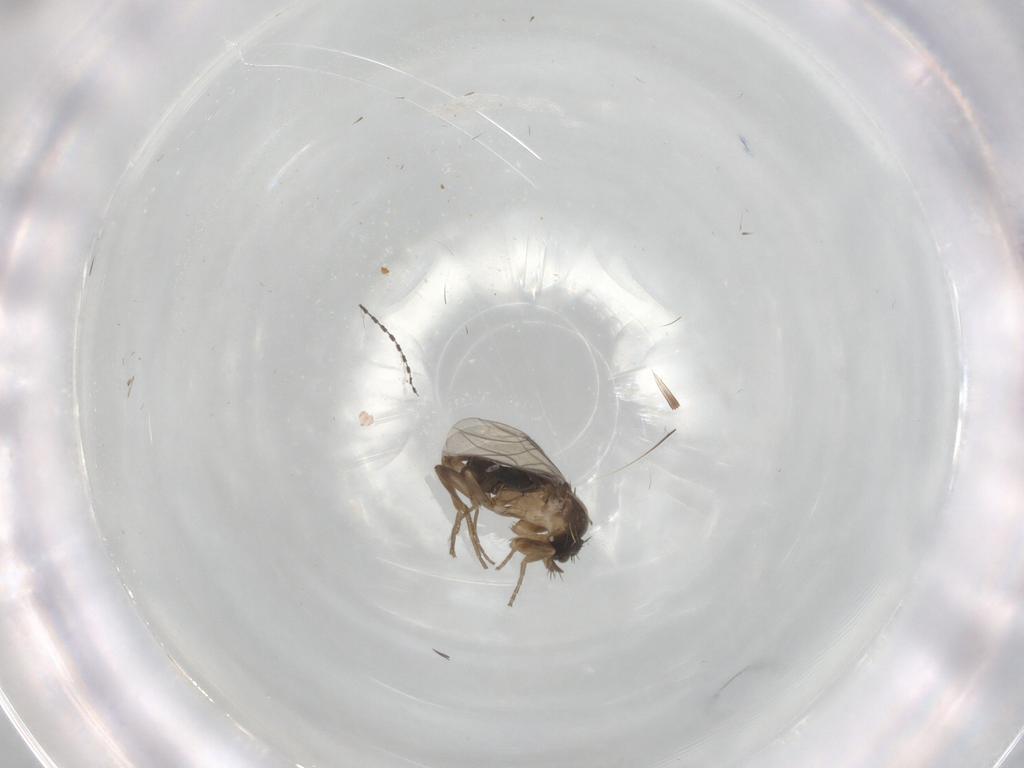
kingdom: Animalia
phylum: Arthropoda
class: Insecta
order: Diptera
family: Phoridae
